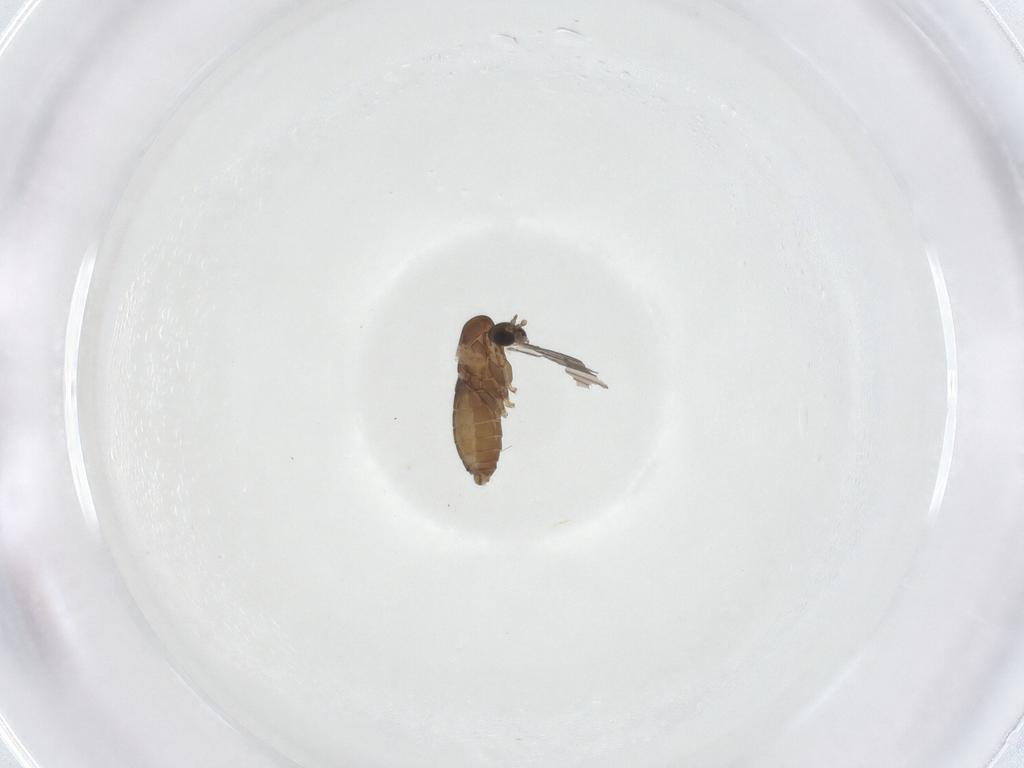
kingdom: Animalia
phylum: Arthropoda
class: Insecta
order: Diptera
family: Psychodidae
